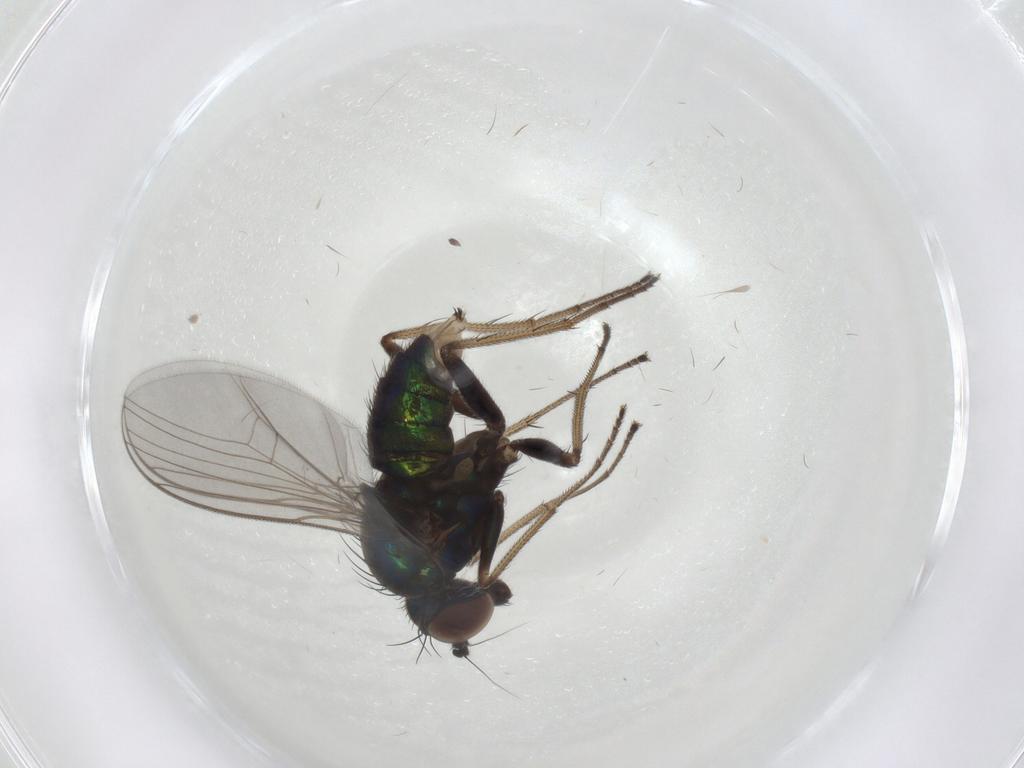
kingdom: Animalia
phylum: Arthropoda
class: Insecta
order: Diptera
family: Dolichopodidae
